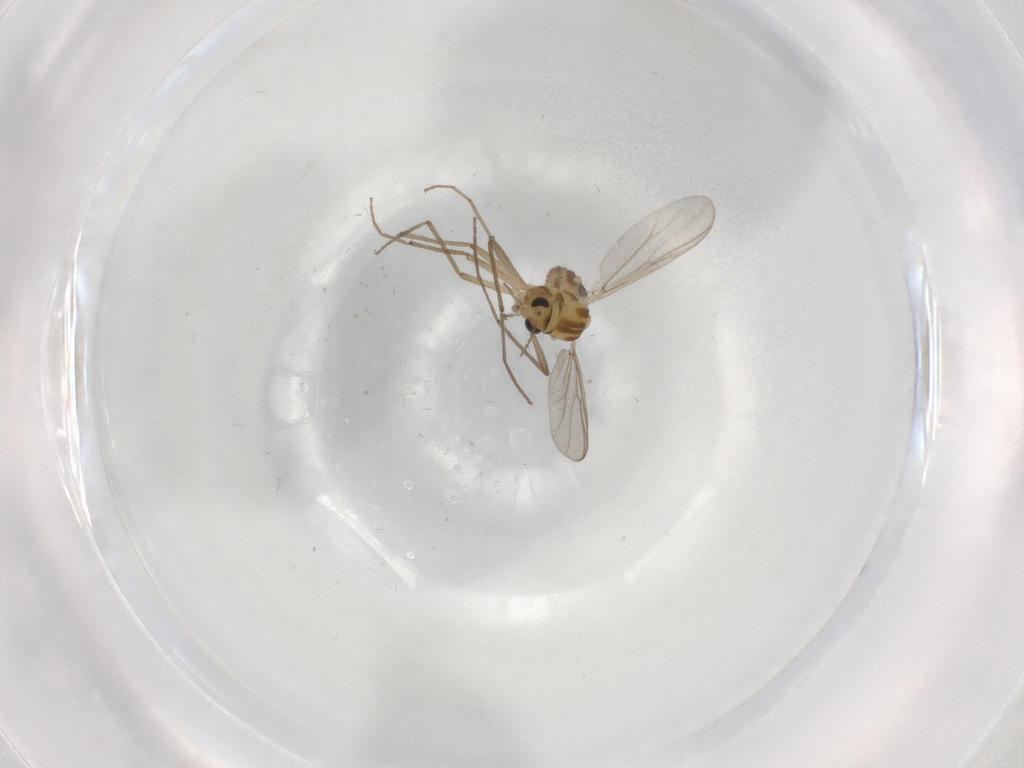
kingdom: Animalia
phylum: Arthropoda
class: Insecta
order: Diptera
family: Chironomidae
